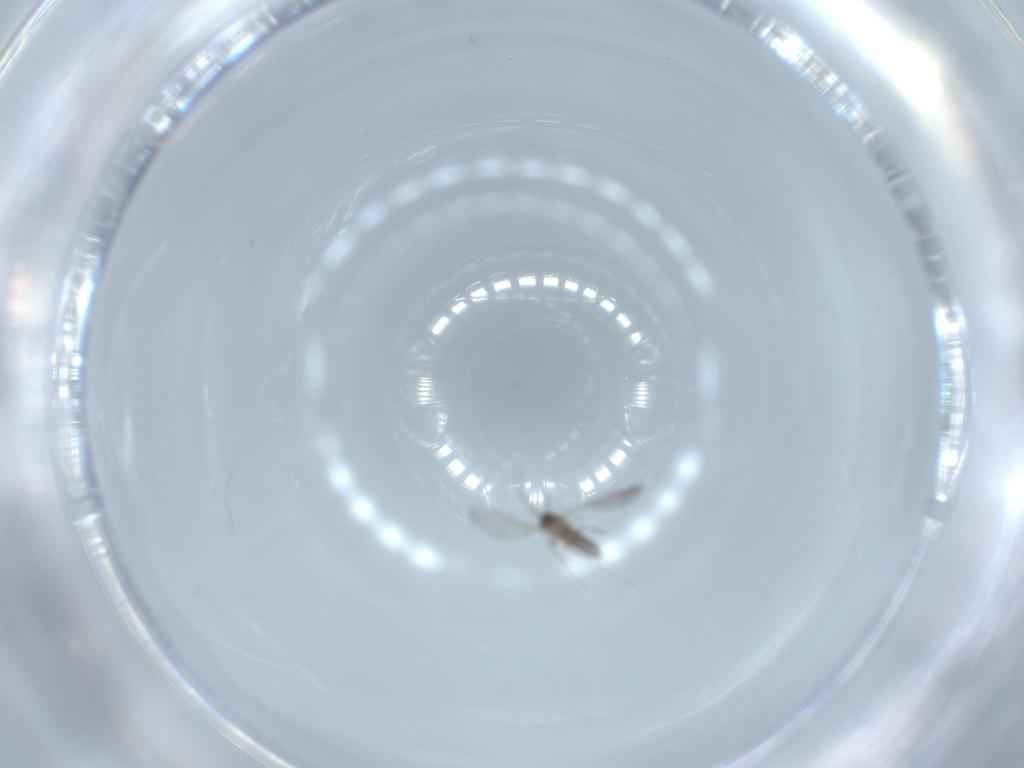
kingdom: Animalia
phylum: Arthropoda
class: Insecta
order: Diptera
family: Cecidomyiidae
